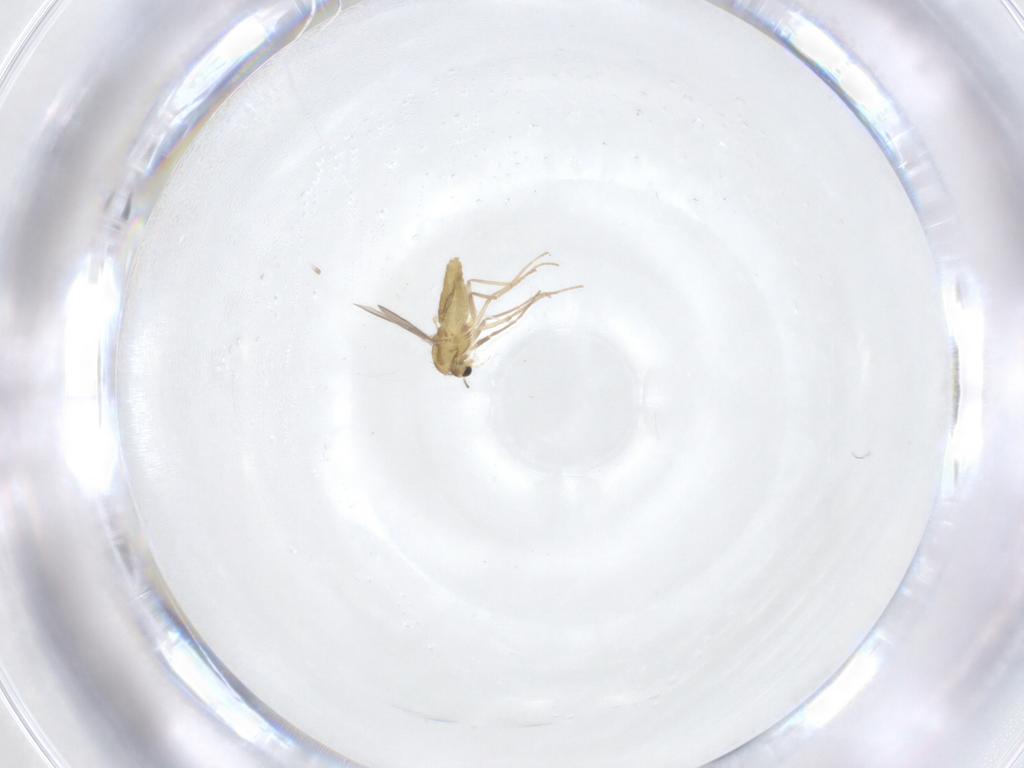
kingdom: Animalia
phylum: Arthropoda
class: Insecta
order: Diptera
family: Chironomidae
